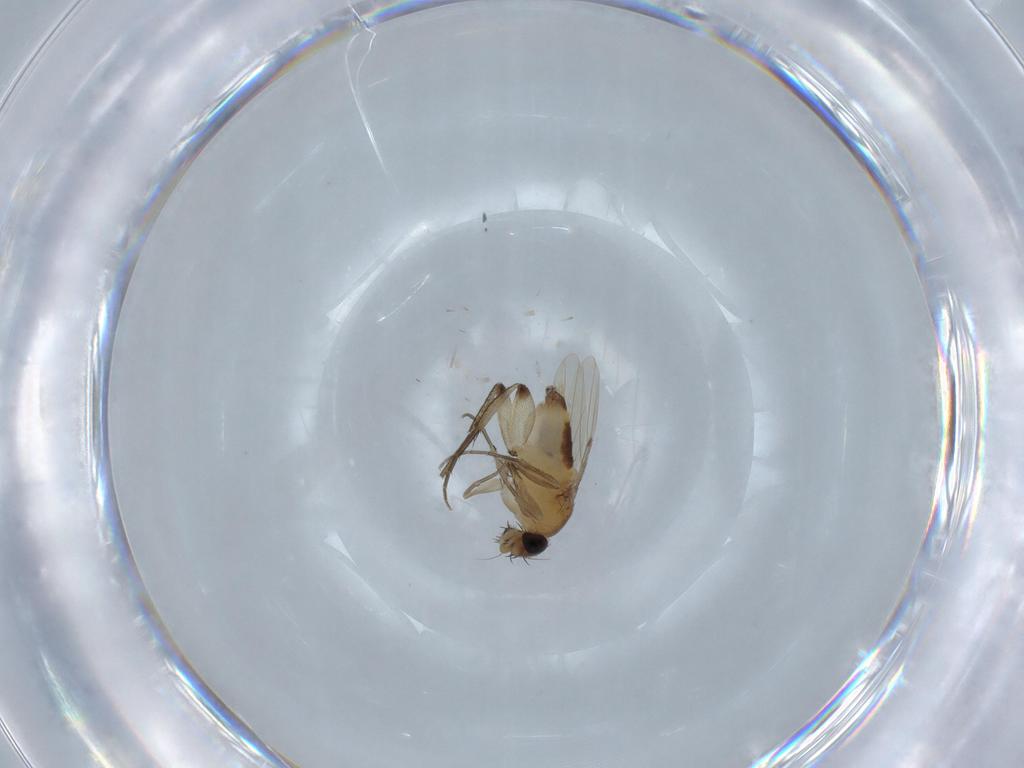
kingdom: Animalia
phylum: Arthropoda
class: Insecta
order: Diptera
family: Phoridae
